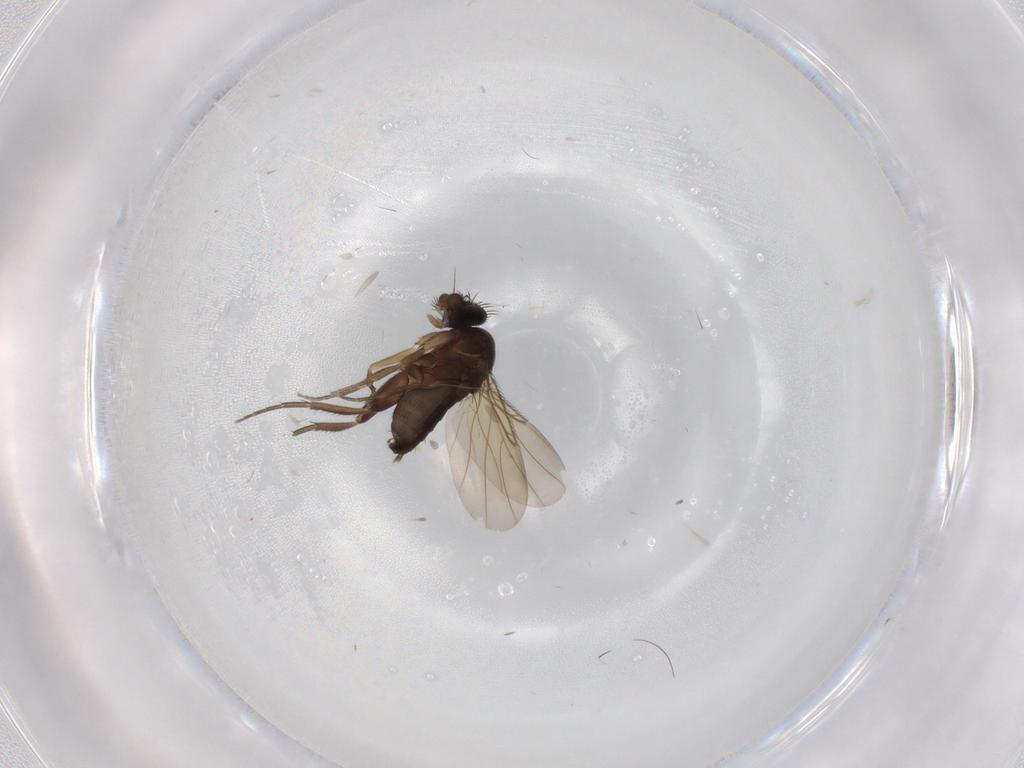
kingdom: Animalia
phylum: Arthropoda
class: Insecta
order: Diptera
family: Phoridae
